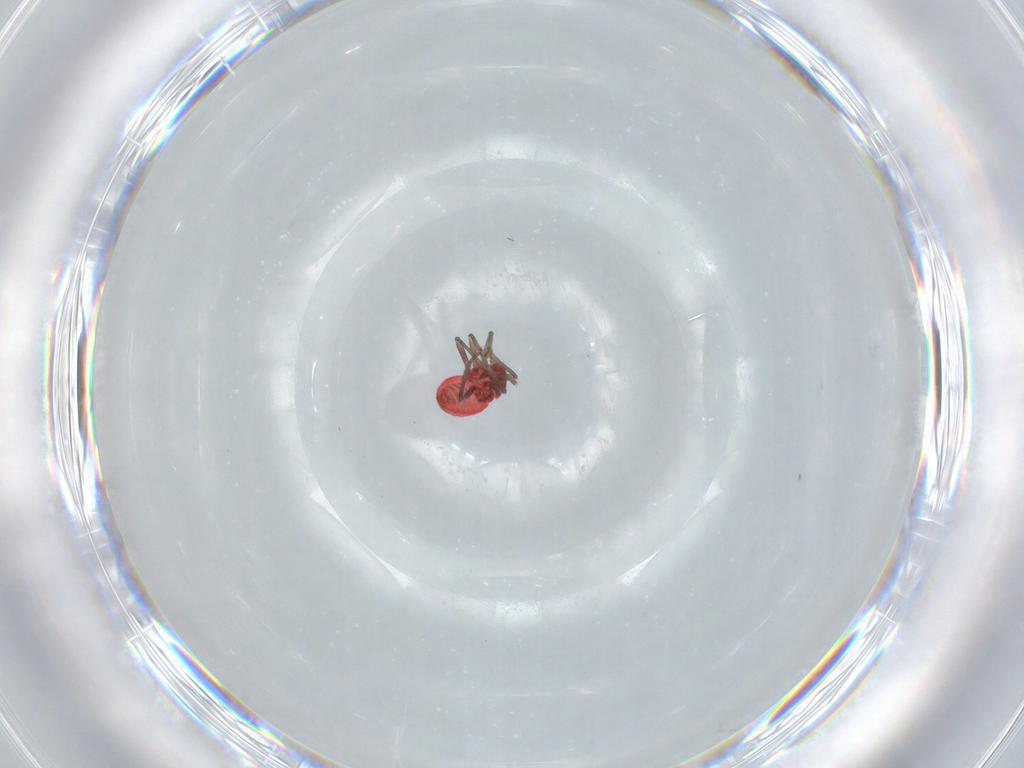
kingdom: Animalia
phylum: Arthropoda
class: Insecta
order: Hemiptera
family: Schizopteridae
